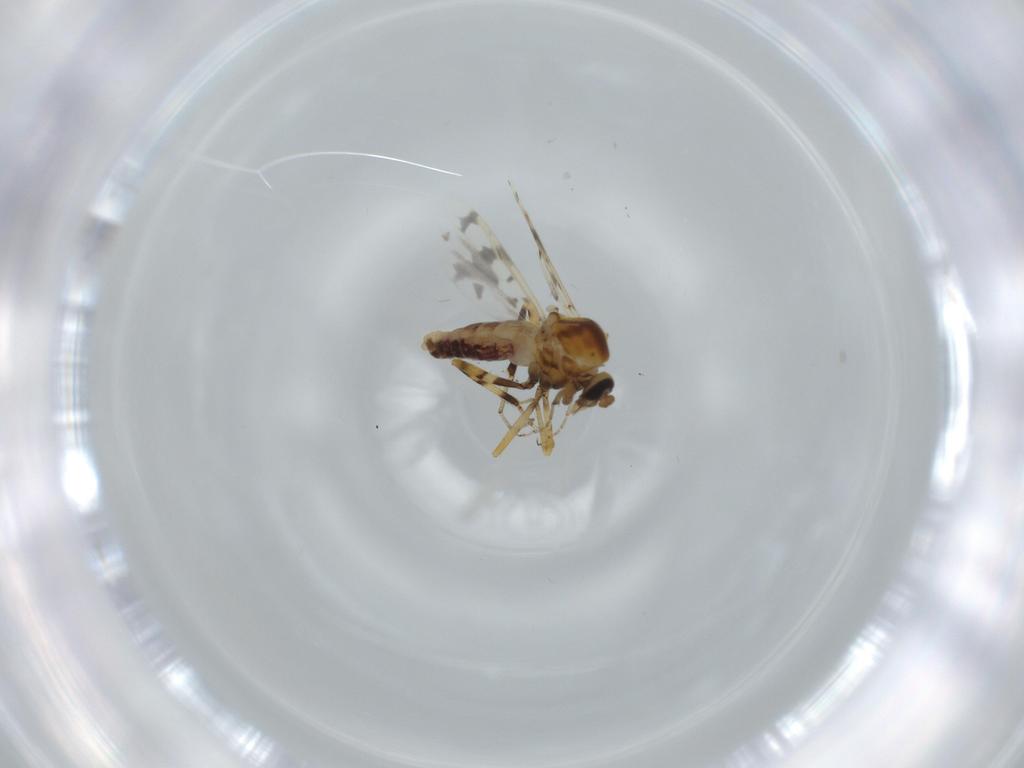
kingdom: Animalia
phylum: Arthropoda
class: Insecta
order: Diptera
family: Ceratopogonidae
